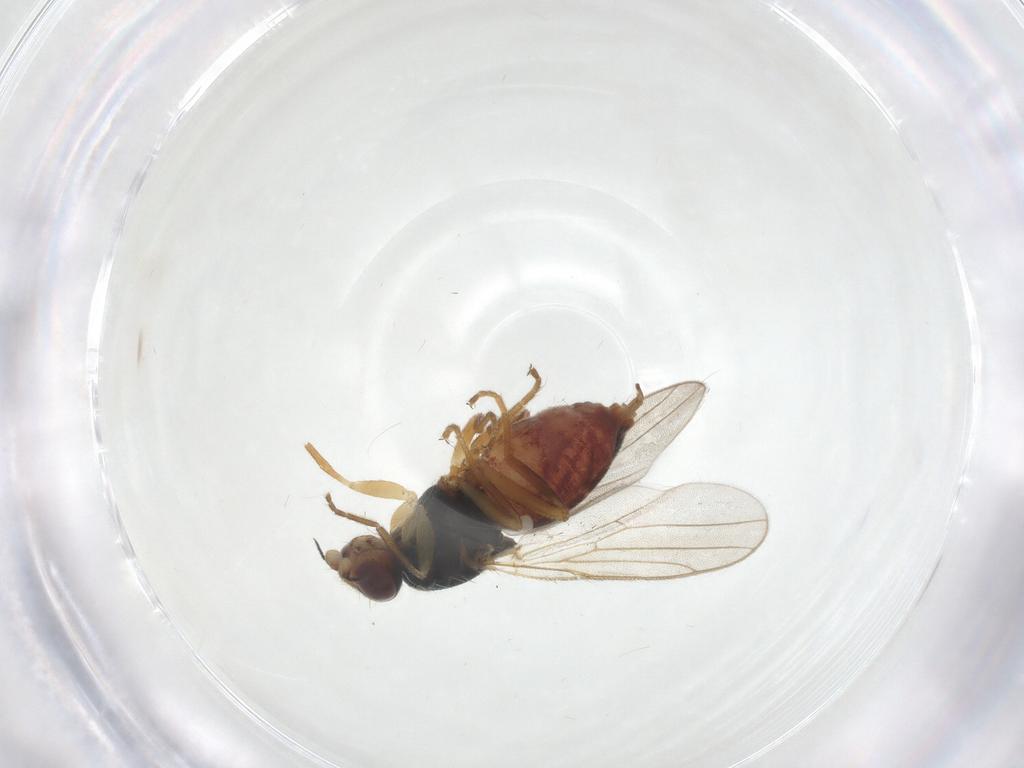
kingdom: Animalia
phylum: Arthropoda
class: Insecta
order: Diptera
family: Chloropidae
